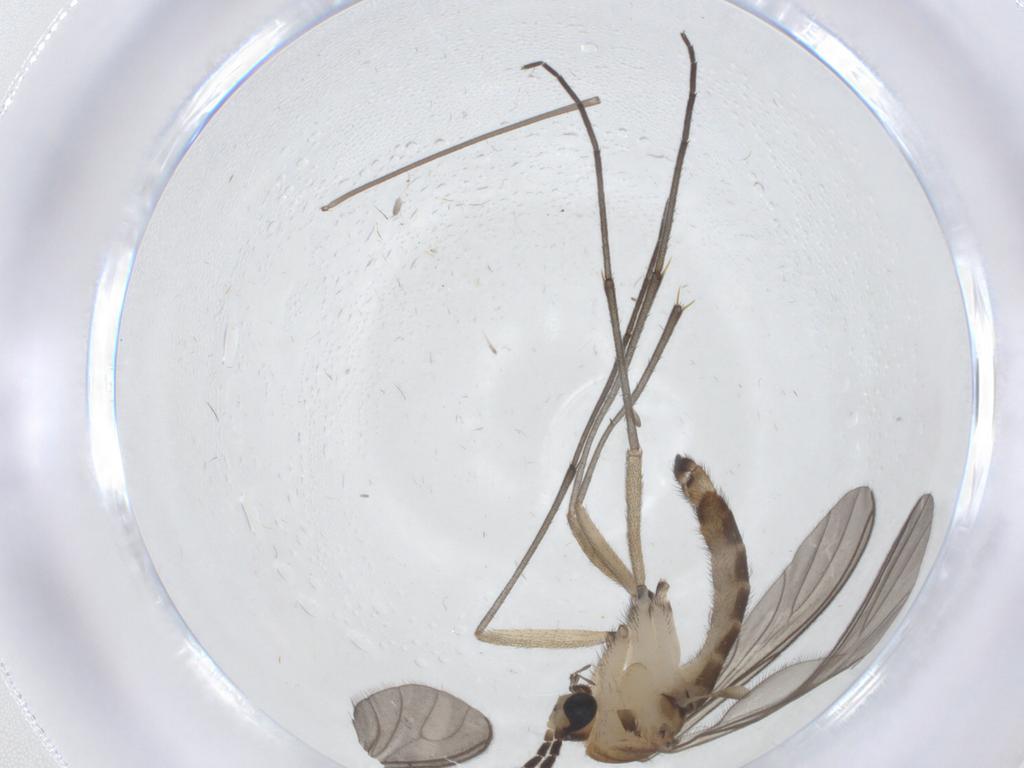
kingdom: Animalia
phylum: Arthropoda
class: Insecta
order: Diptera
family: Sciaridae
